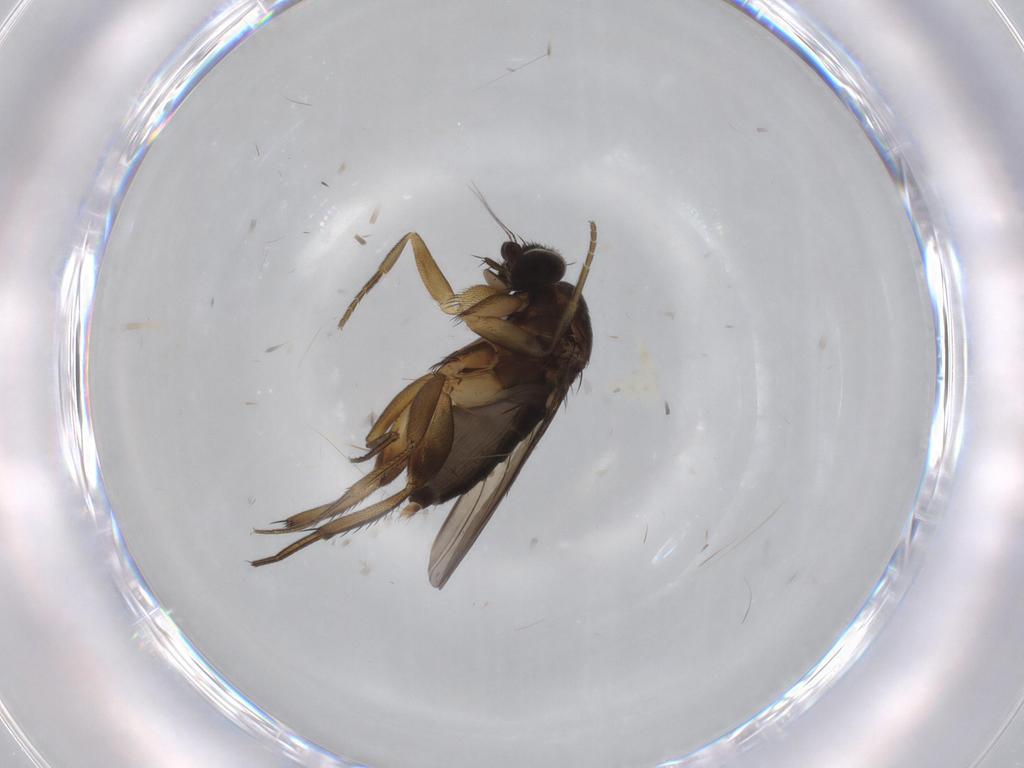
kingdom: Animalia
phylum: Arthropoda
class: Insecta
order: Diptera
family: Phoridae
